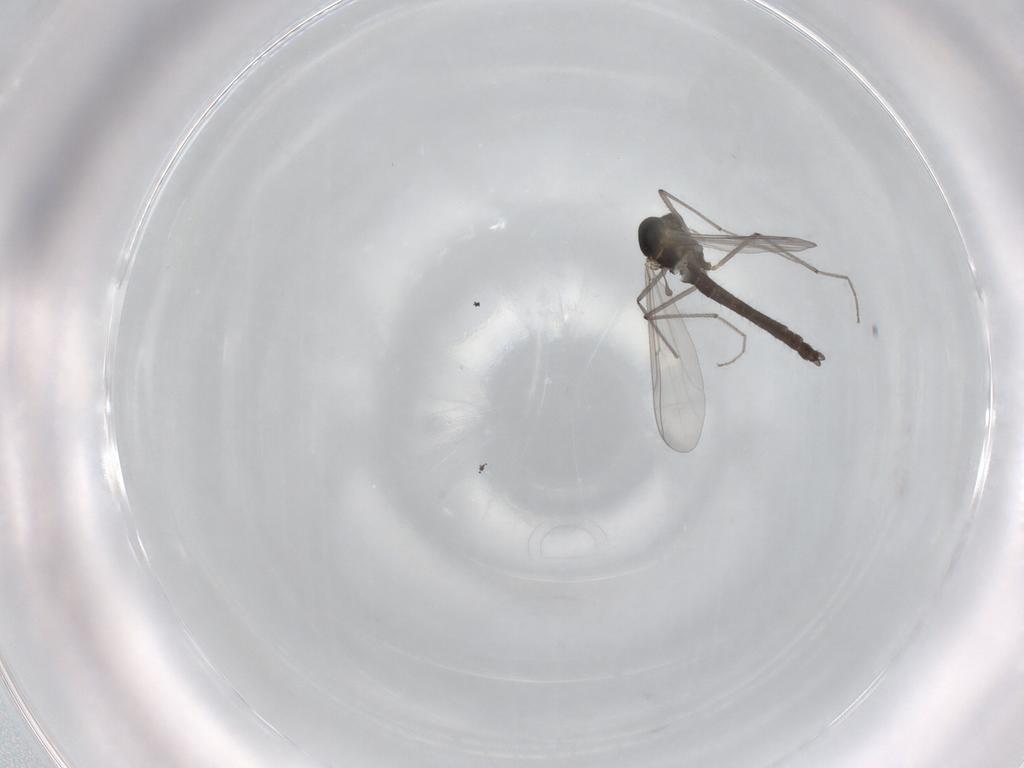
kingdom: Animalia
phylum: Arthropoda
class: Insecta
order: Diptera
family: Chironomidae
